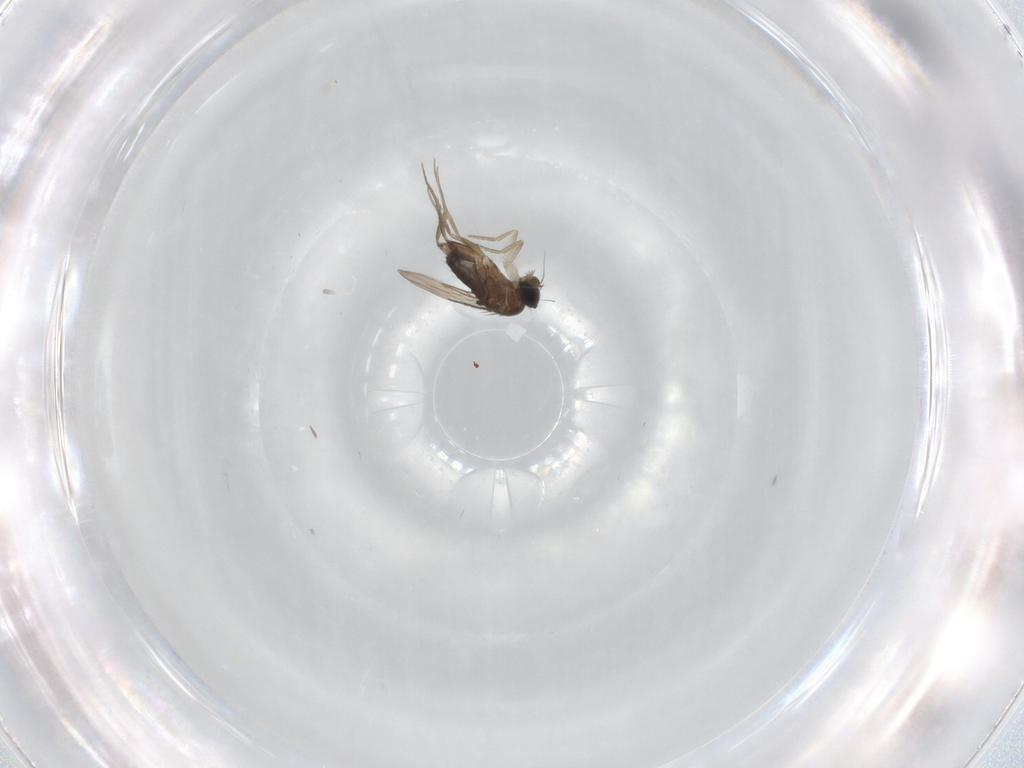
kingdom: Animalia
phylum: Arthropoda
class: Insecta
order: Diptera
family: Phoridae
